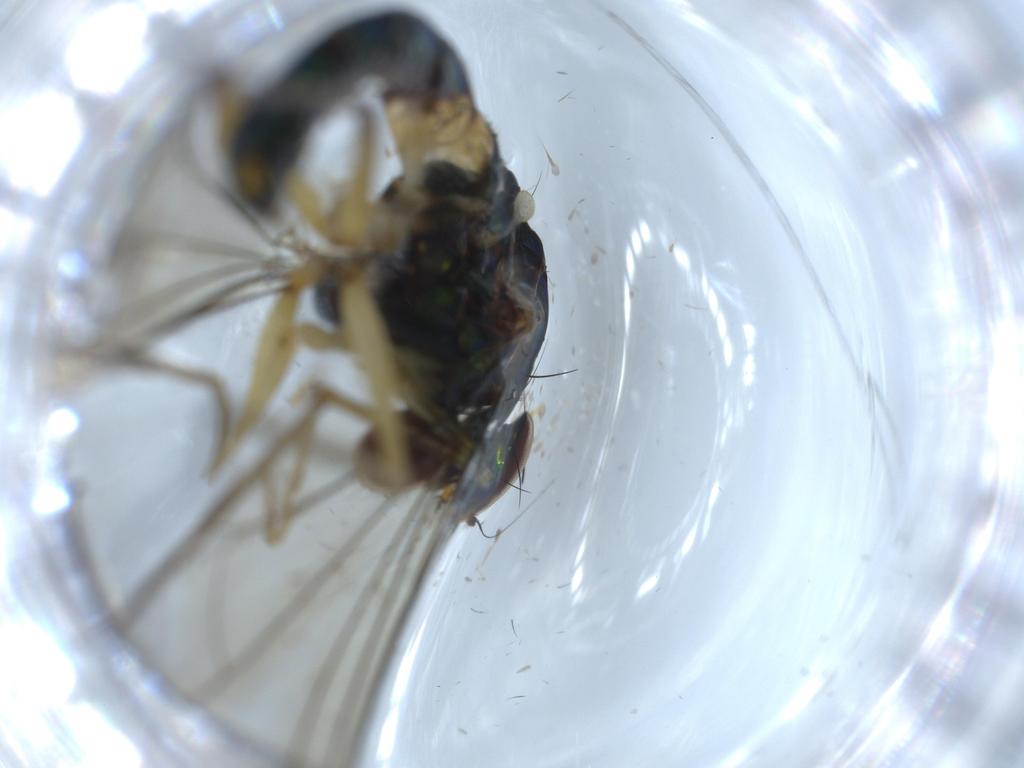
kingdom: Animalia
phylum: Arthropoda
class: Insecta
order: Diptera
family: Dolichopodidae
